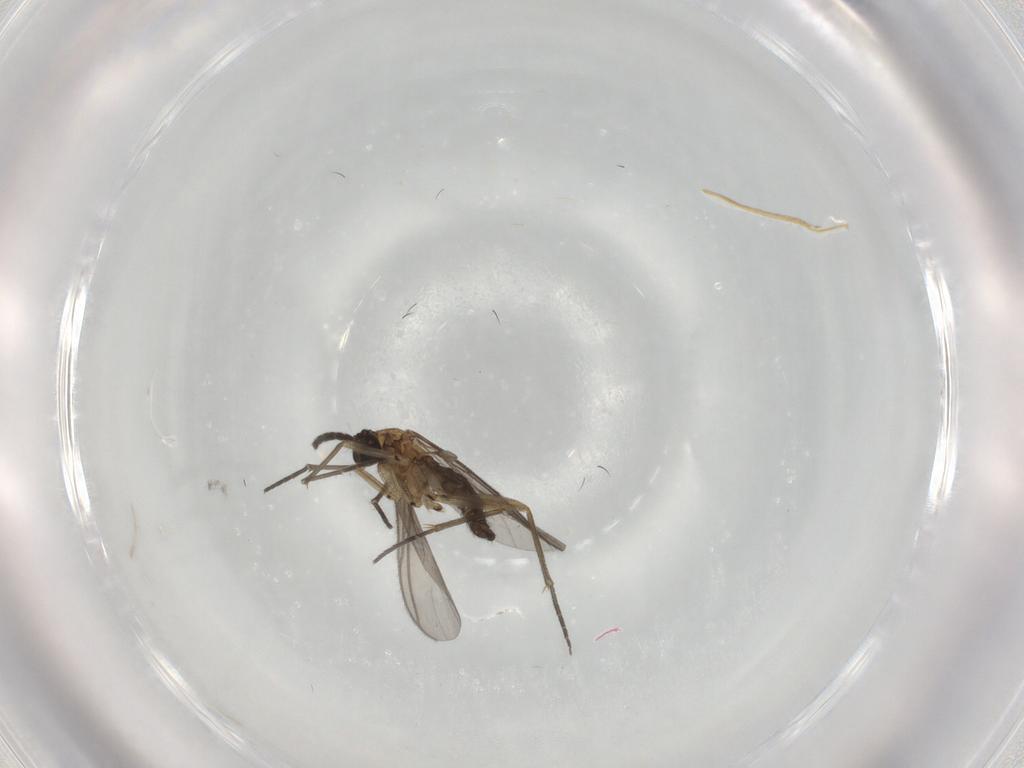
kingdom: Animalia
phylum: Arthropoda
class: Insecta
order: Diptera
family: Sciaridae
